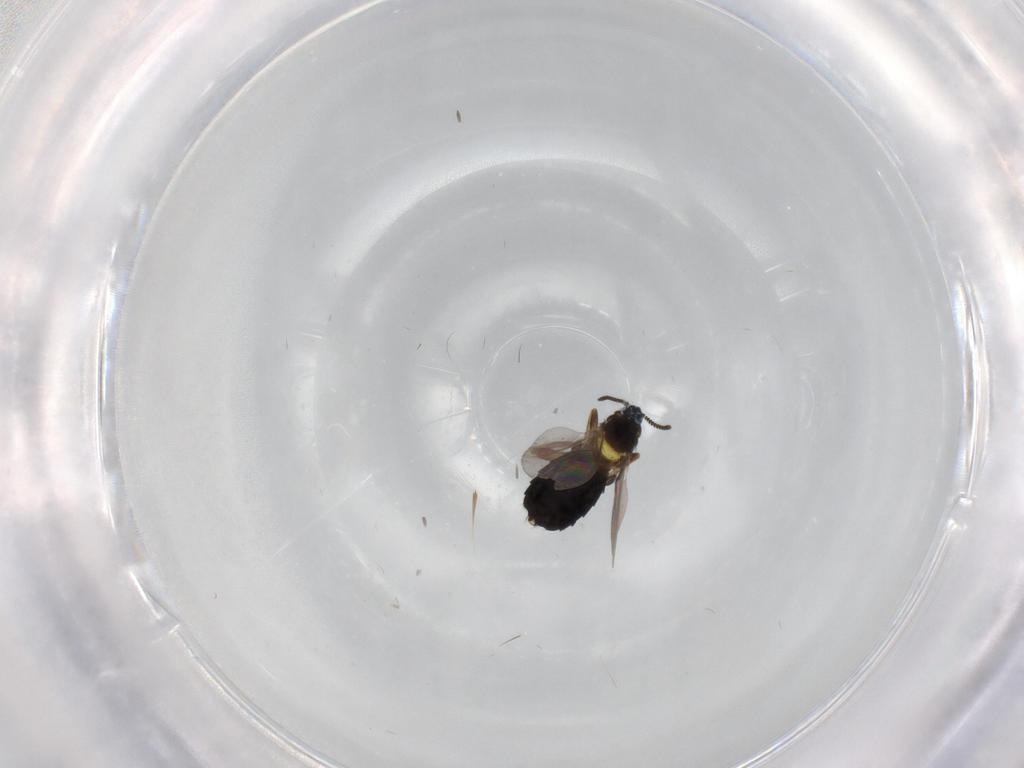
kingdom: Animalia
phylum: Arthropoda
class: Insecta
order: Diptera
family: Scatopsidae
